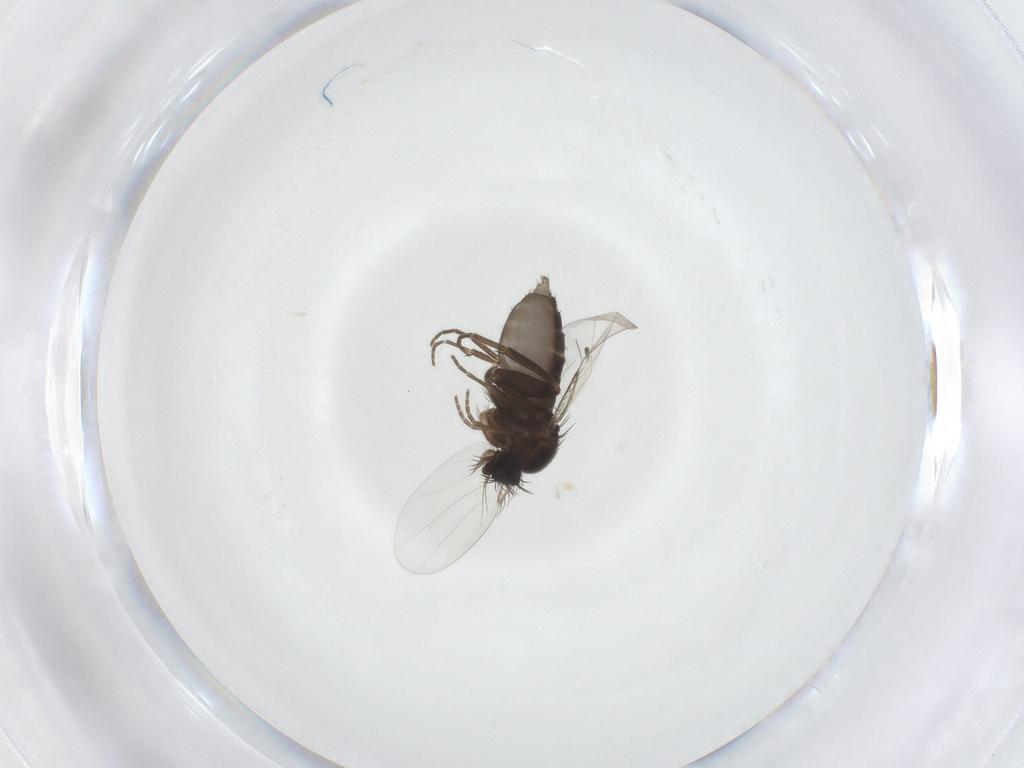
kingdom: Animalia
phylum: Arthropoda
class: Insecta
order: Diptera
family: Phoridae
